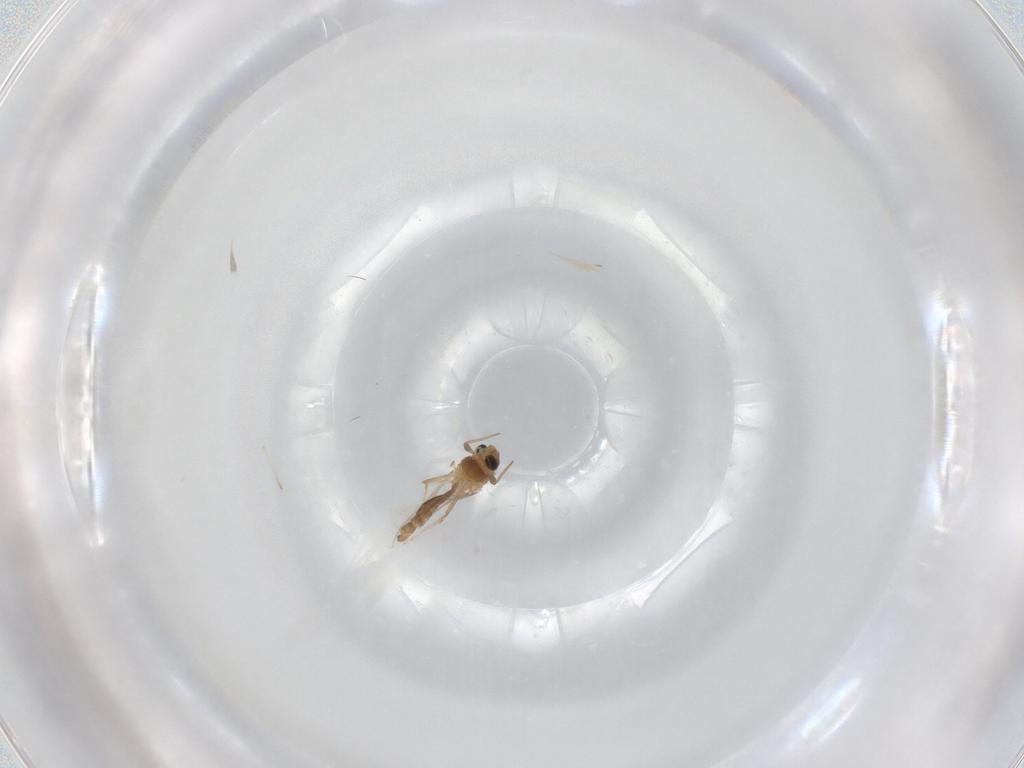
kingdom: Animalia
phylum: Arthropoda
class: Insecta
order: Diptera
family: Chironomidae
